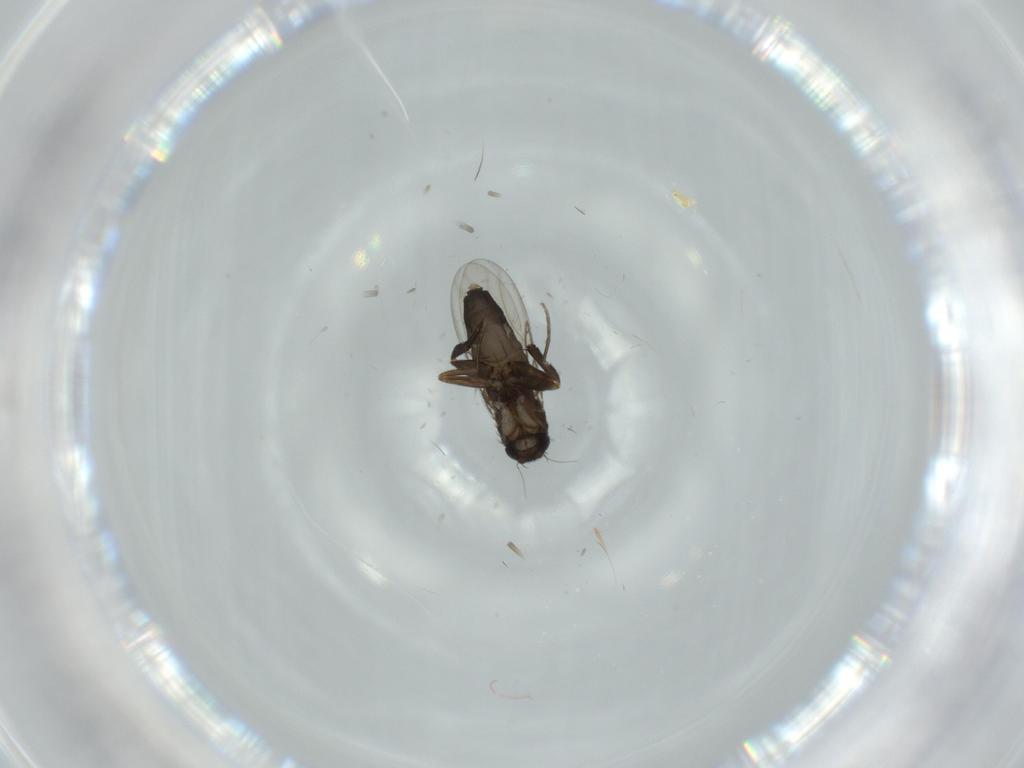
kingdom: Animalia
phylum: Arthropoda
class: Insecta
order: Diptera
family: Phoridae
